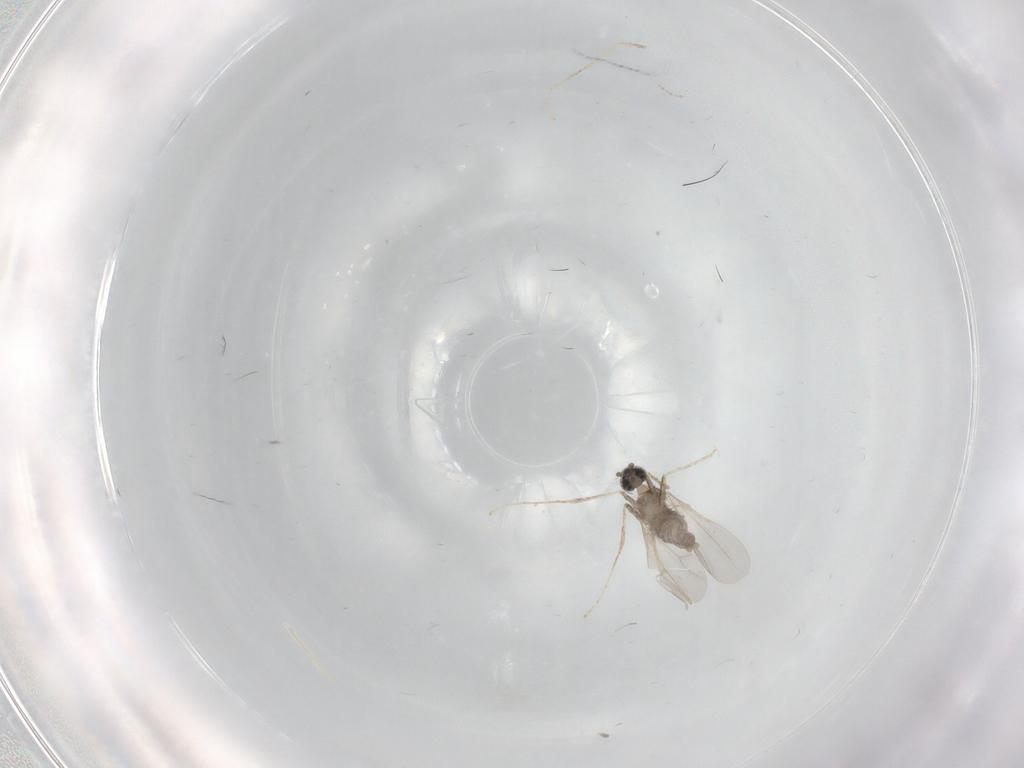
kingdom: Animalia
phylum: Arthropoda
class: Insecta
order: Diptera
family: Cecidomyiidae
